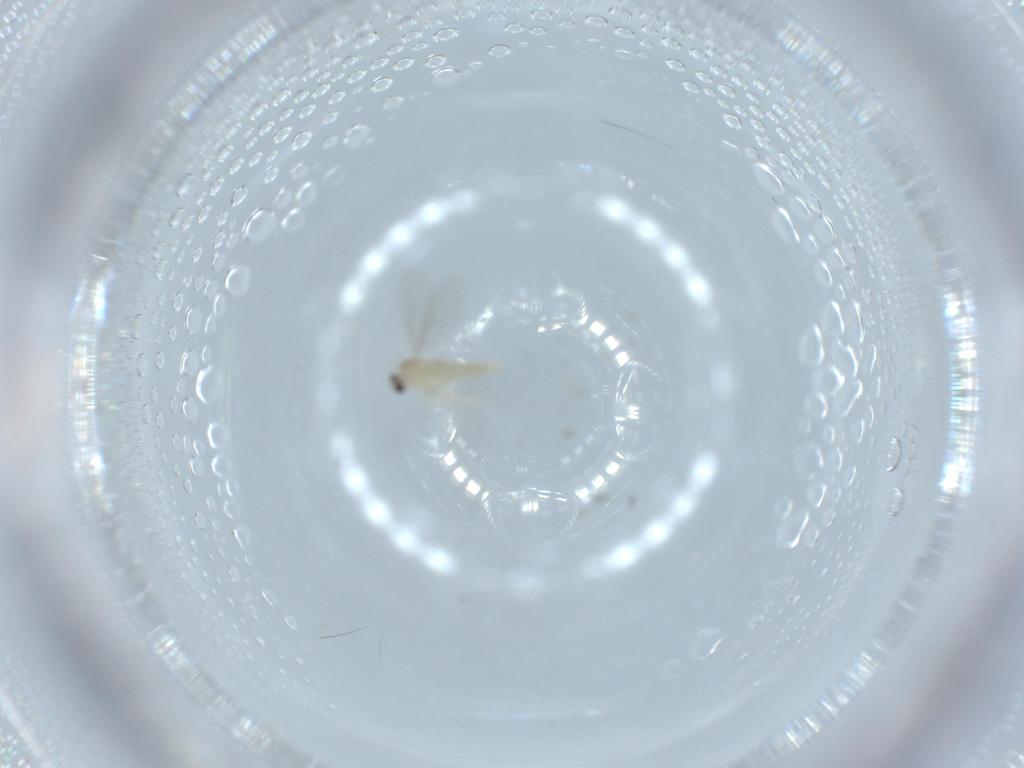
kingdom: Animalia
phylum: Arthropoda
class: Insecta
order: Diptera
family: Cecidomyiidae
